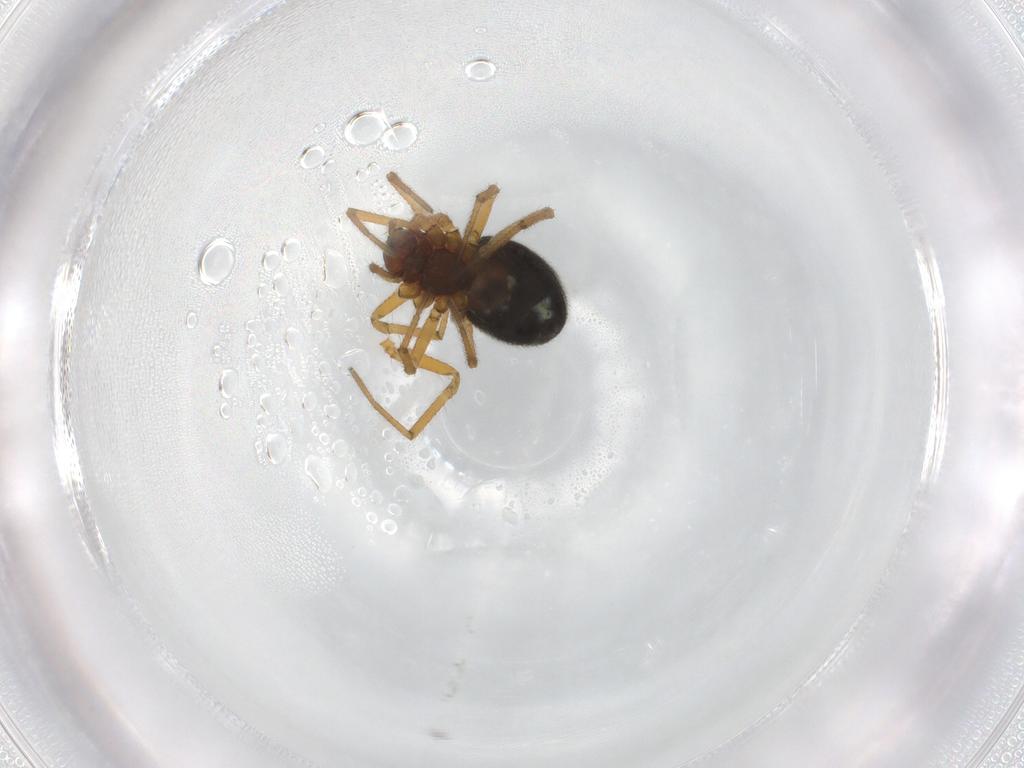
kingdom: Animalia
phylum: Arthropoda
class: Arachnida
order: Araneae
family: Linyphiidae
